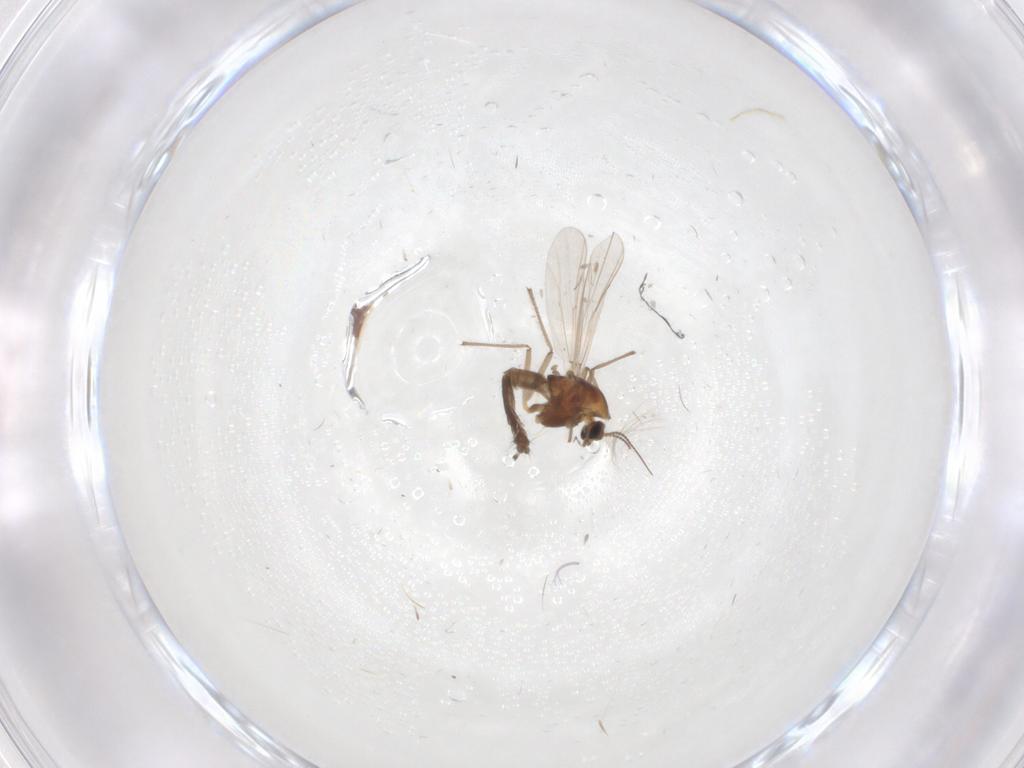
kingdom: Animalia
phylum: Arthropoda
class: Insecta
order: Diptera
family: Chironomidae
